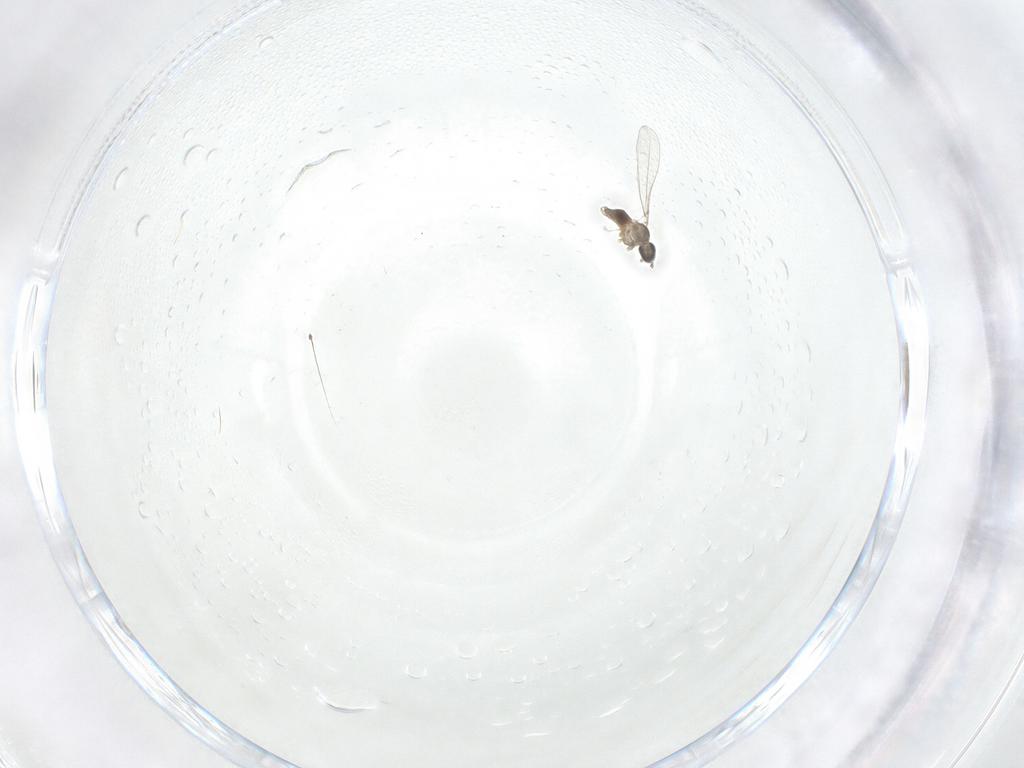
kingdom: Animalia
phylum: Arthropoda
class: Insecta
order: Diptera
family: Cecidomyiidae
